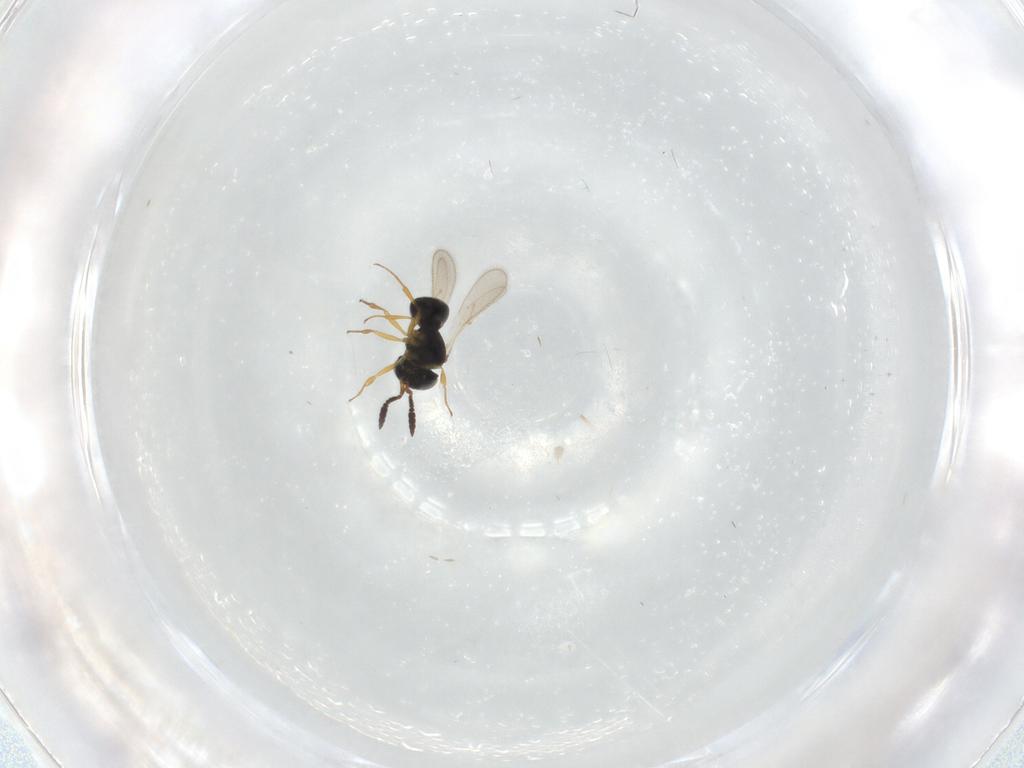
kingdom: Animalia
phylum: Arthropoda
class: Insecta
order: Hymenoptera
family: Scelionidae
